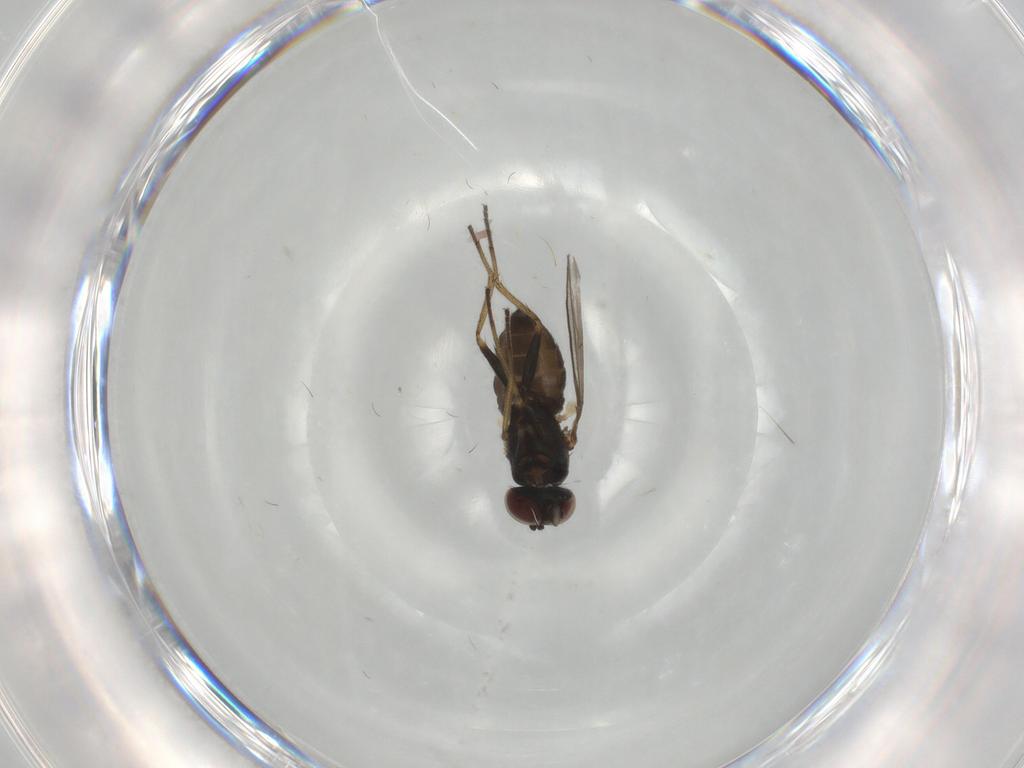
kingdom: Animalia
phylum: Arthropoda
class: Insecta
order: Diptera
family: Dolichopodidae
